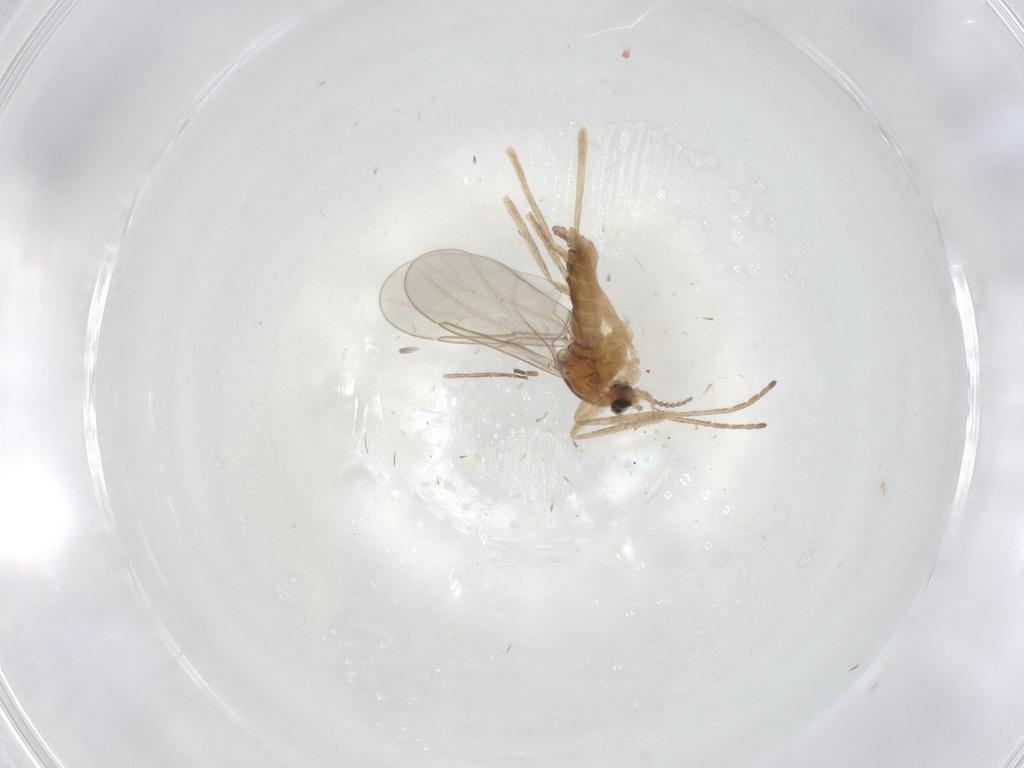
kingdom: Animalia
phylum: Arthropoda
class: Insecta
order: Diptera
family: Cecidomyiidae
